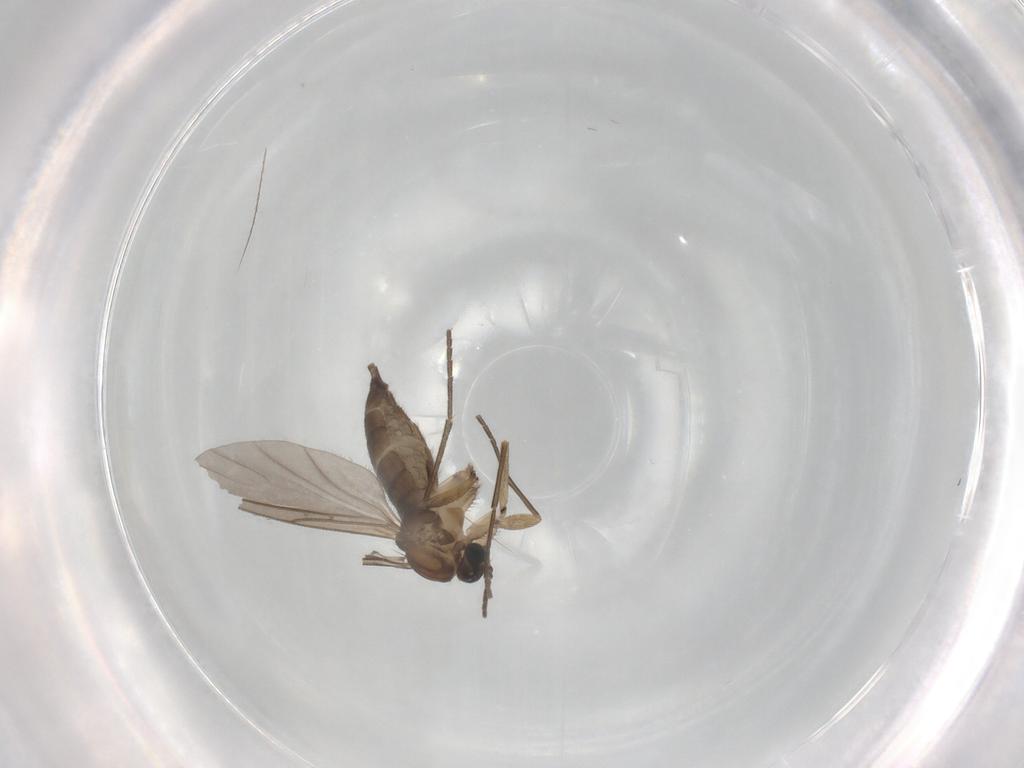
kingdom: Animalia
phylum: Arthropoda
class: Insecta
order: Diptera
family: Sciaridae
